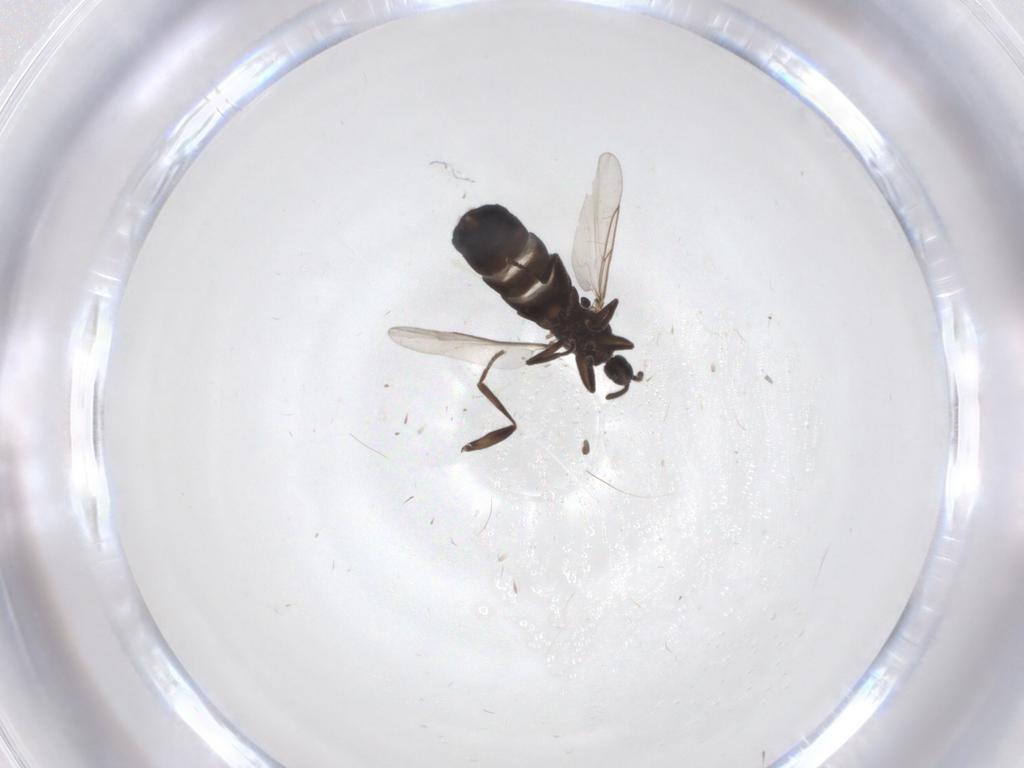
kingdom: Animalia
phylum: Arthropoda
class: Insecta
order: Diptera
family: Scatopsidae
